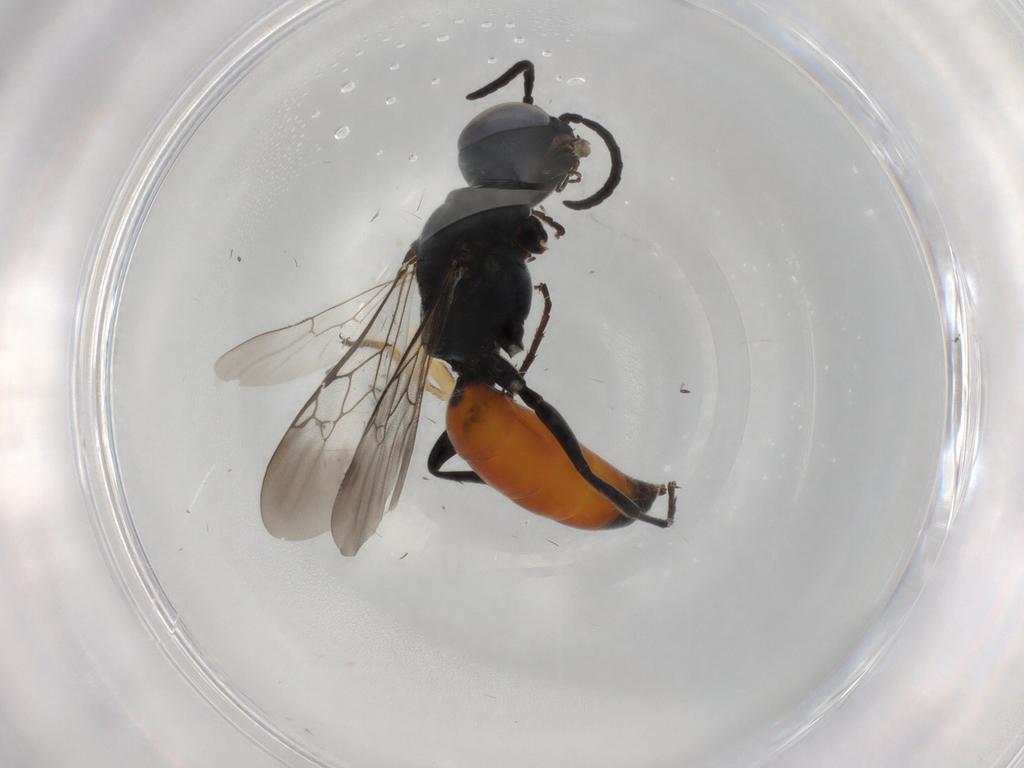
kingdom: Animalia
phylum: Arthropoda
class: Insecta
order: Hymenoptera
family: Crabronidae
